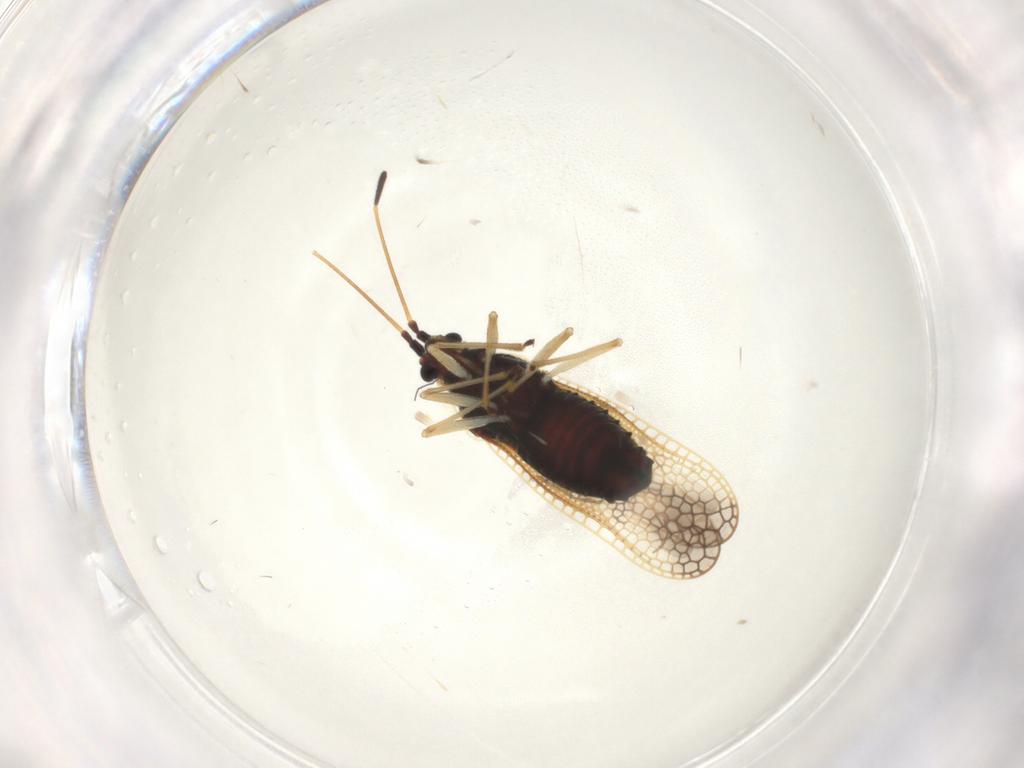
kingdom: Animalia
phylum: Arthropoda
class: Insecta
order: Hemiptera
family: Tingidae
